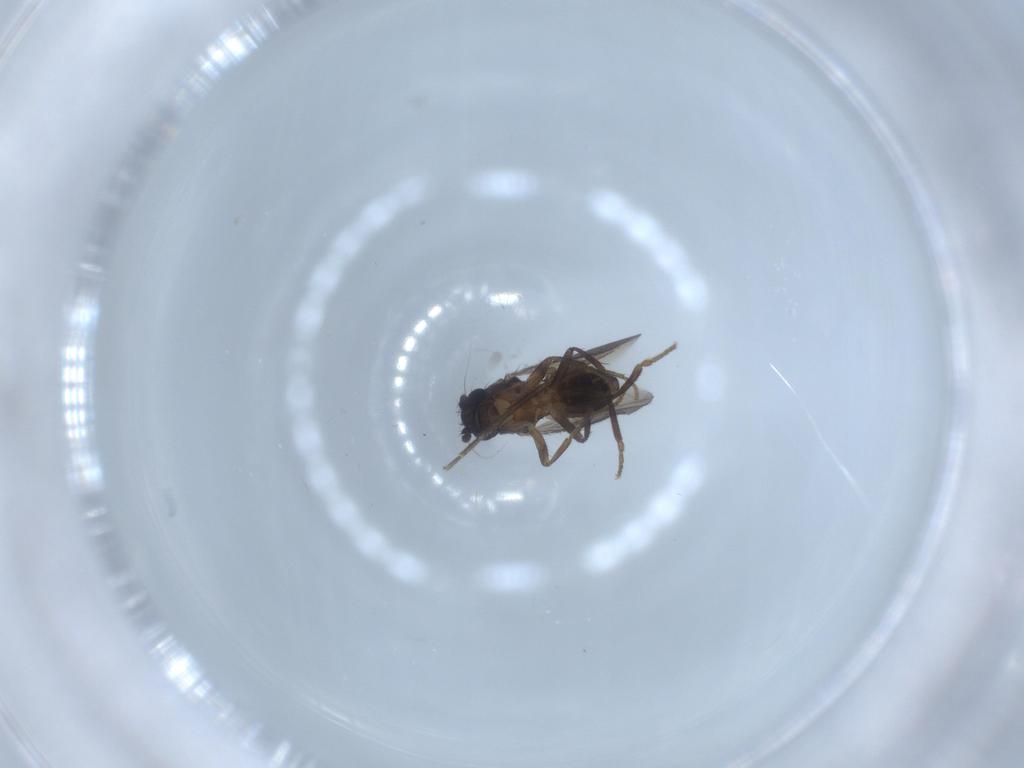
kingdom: Animalia
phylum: Arthropoda
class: Insecta
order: Diptera
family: Sphaeroceridae
